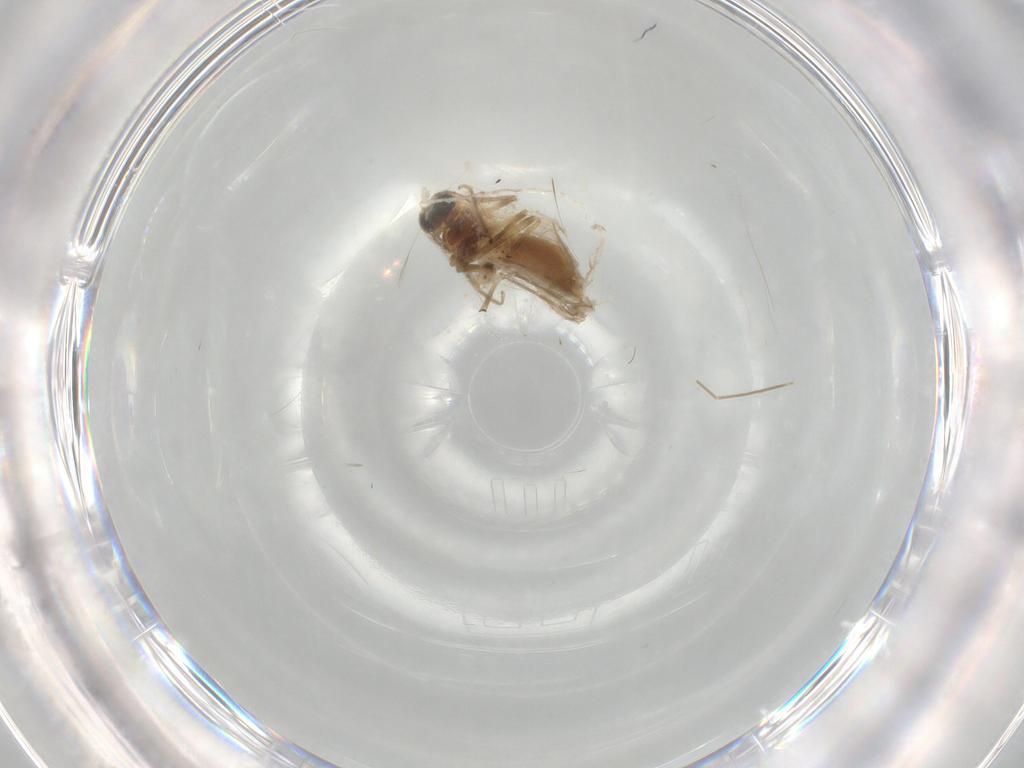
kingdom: Animalia
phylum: Arthropoda
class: Insecta
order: Diptera
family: Chironomidae
